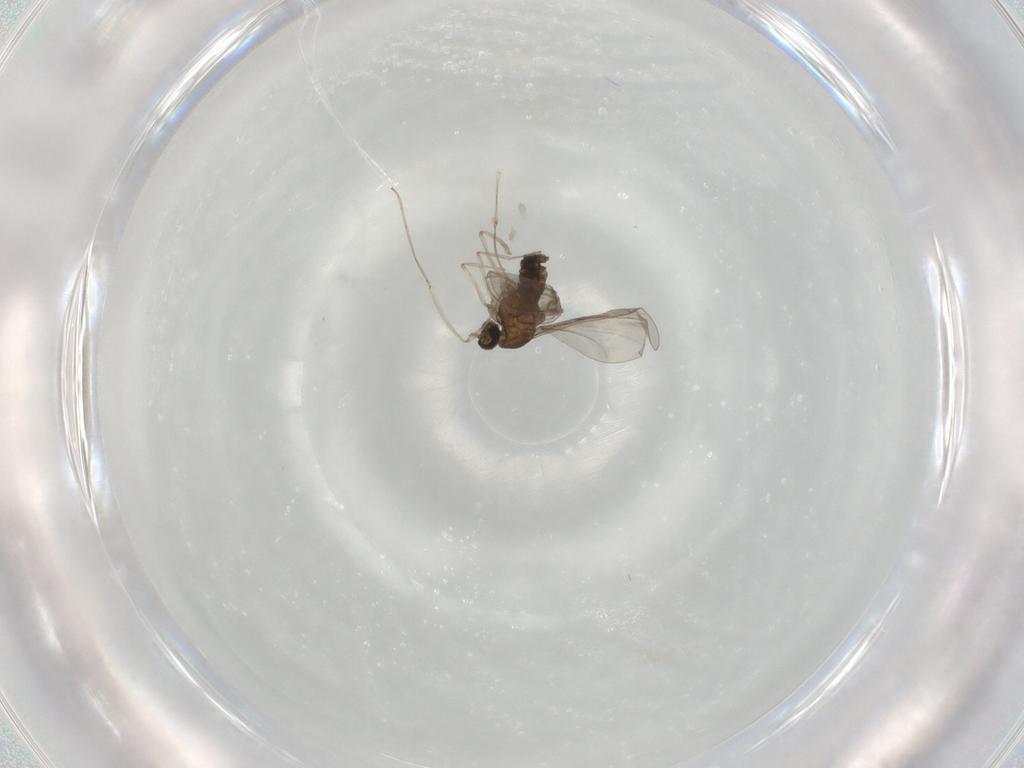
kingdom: Animalia
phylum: Arthropoda
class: Insecta
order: Diptera
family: Cecidomyiidae
